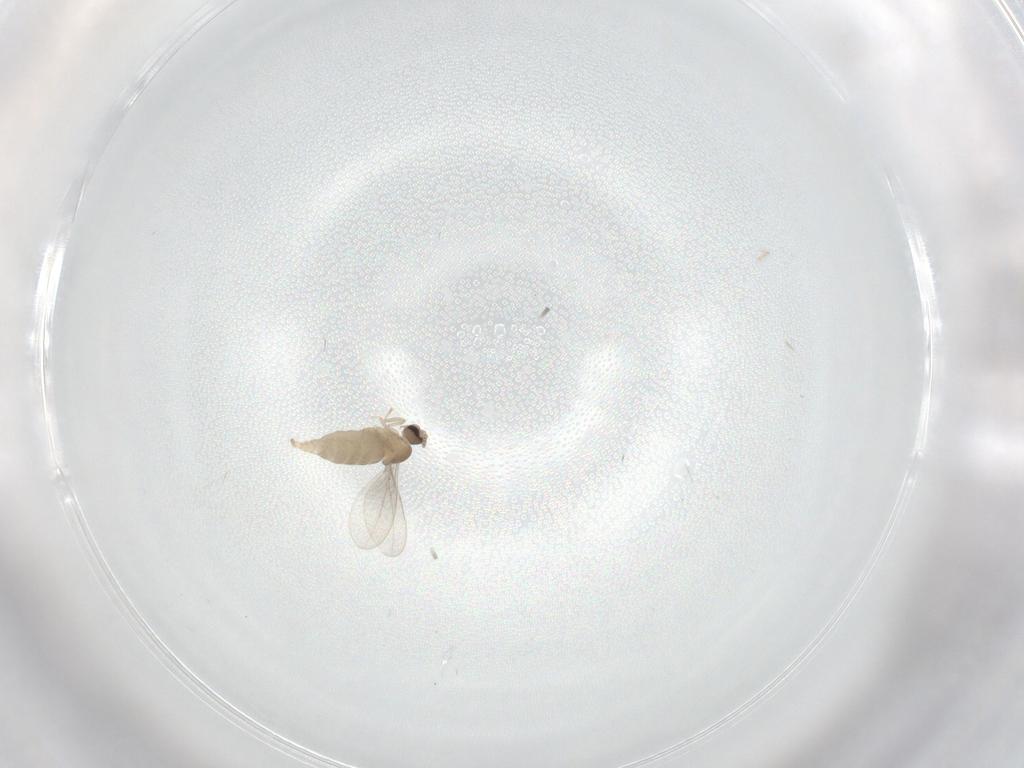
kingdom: Animalia
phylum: Arthropoda
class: Insecta
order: Diptera
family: Cecidomyiidae
